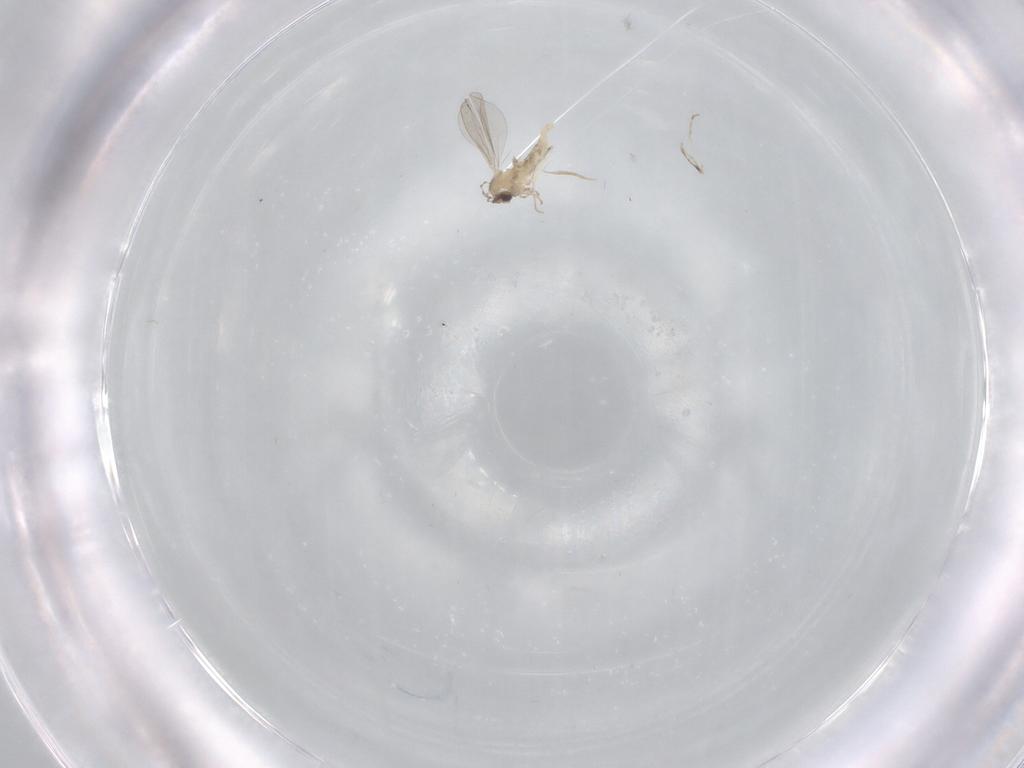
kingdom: Animalia
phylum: Arthropoda
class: Insecta
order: Diptera
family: Cecidomyiidae
